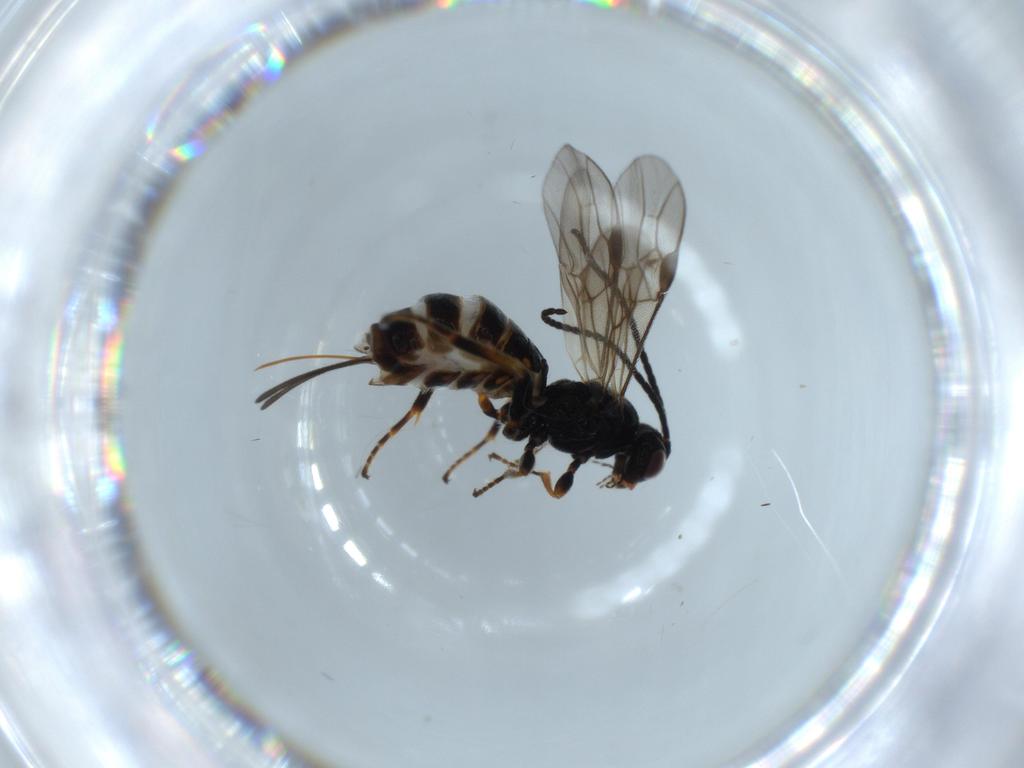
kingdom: Animalia
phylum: Arthropoda
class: Insecta
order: Hymenoptera
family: Braconidae
